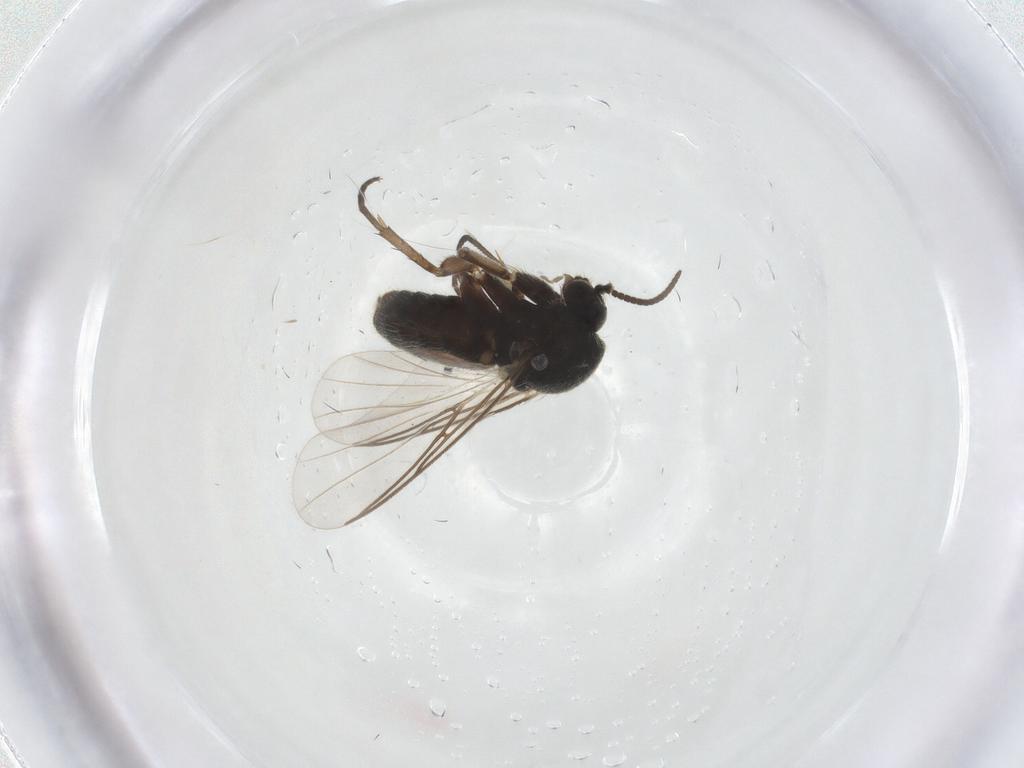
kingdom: Animalia
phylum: Arthropoda
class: Insecta
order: Diptera
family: Mycetophilidae
